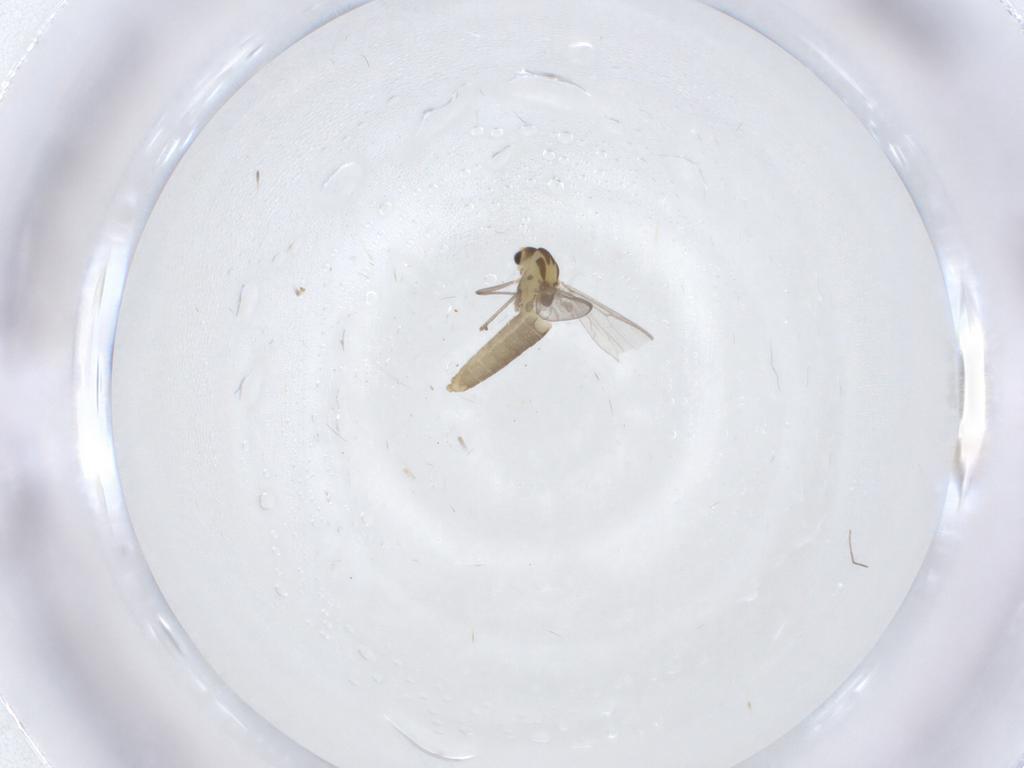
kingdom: Animalia
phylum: Arthropoda
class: Insecta
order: Diptera
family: Sciaridae
